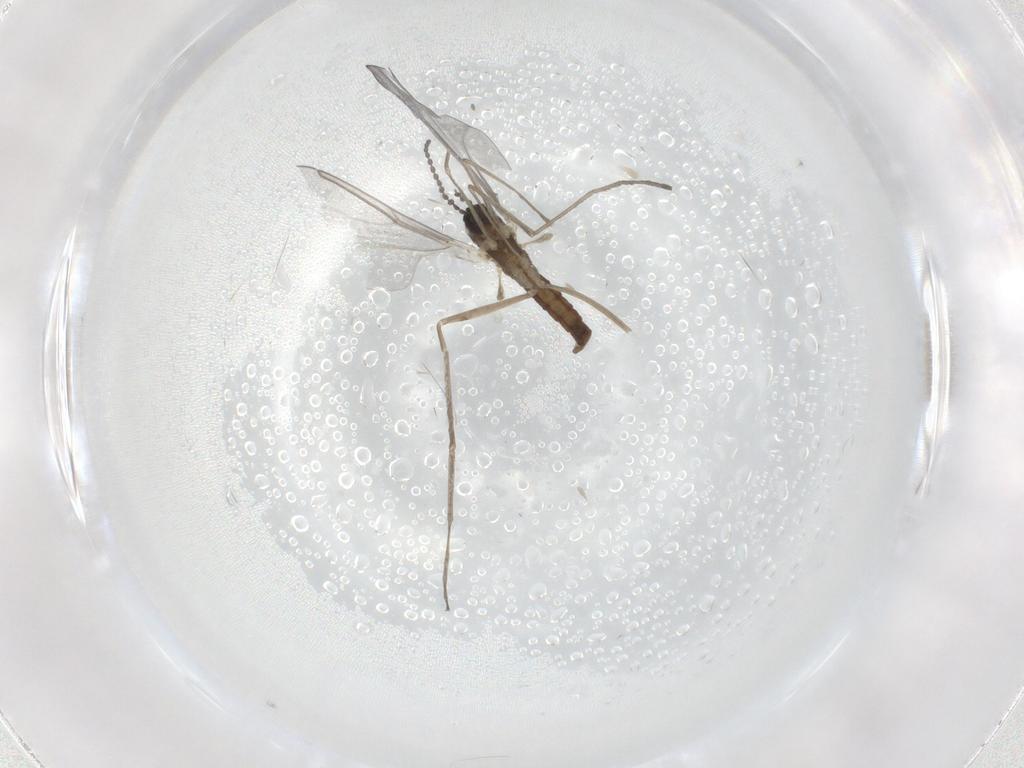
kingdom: Animalia
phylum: Arthropoda
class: Insecta
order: Diptera
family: Cecidomyiidae
